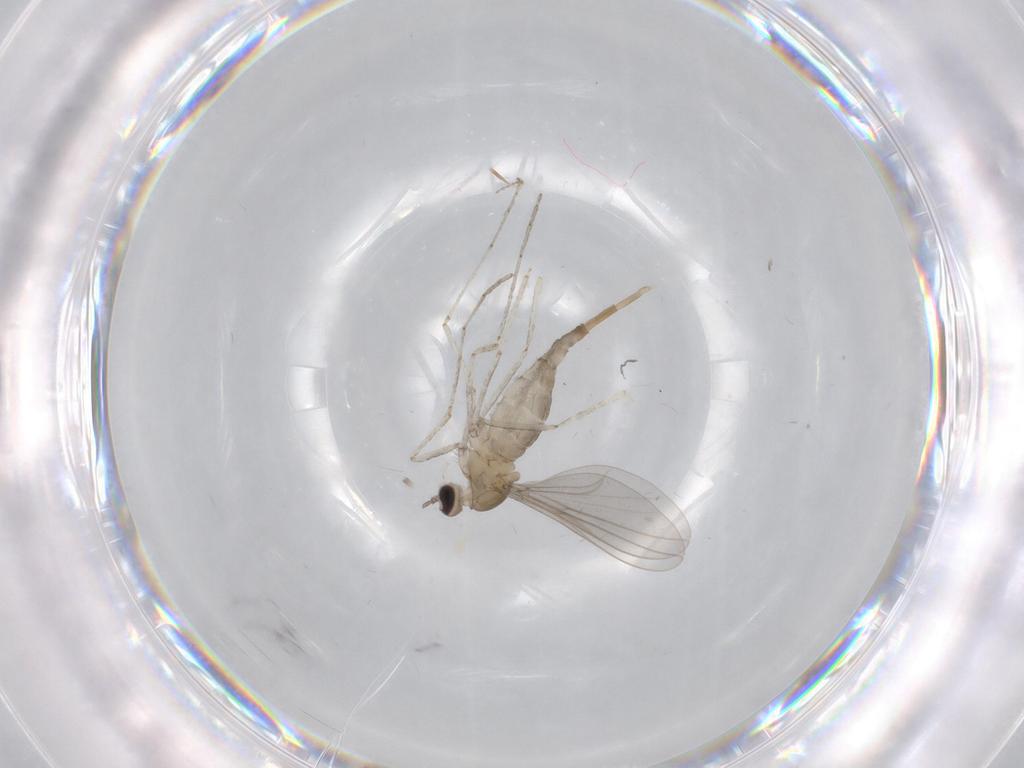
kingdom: Animalia
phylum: Arthropoda
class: Insecta
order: Diptera
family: Cecidomyiidae
